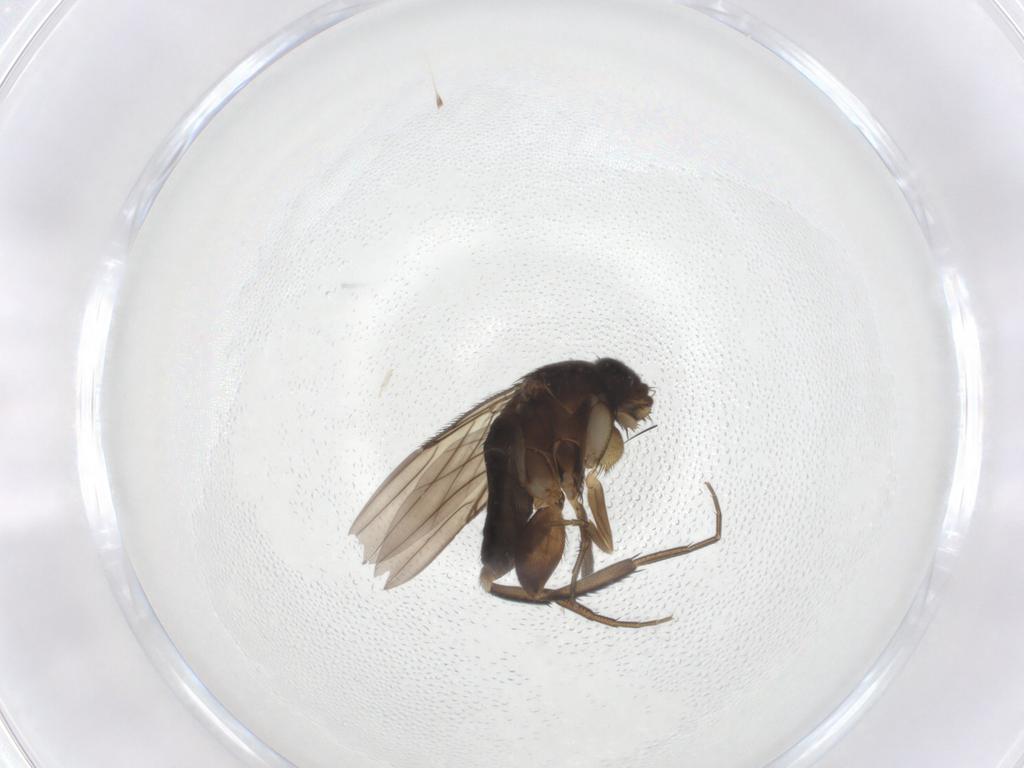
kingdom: Animalia
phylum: Arthropoda
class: Insecta
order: Diptera
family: Phoridae
